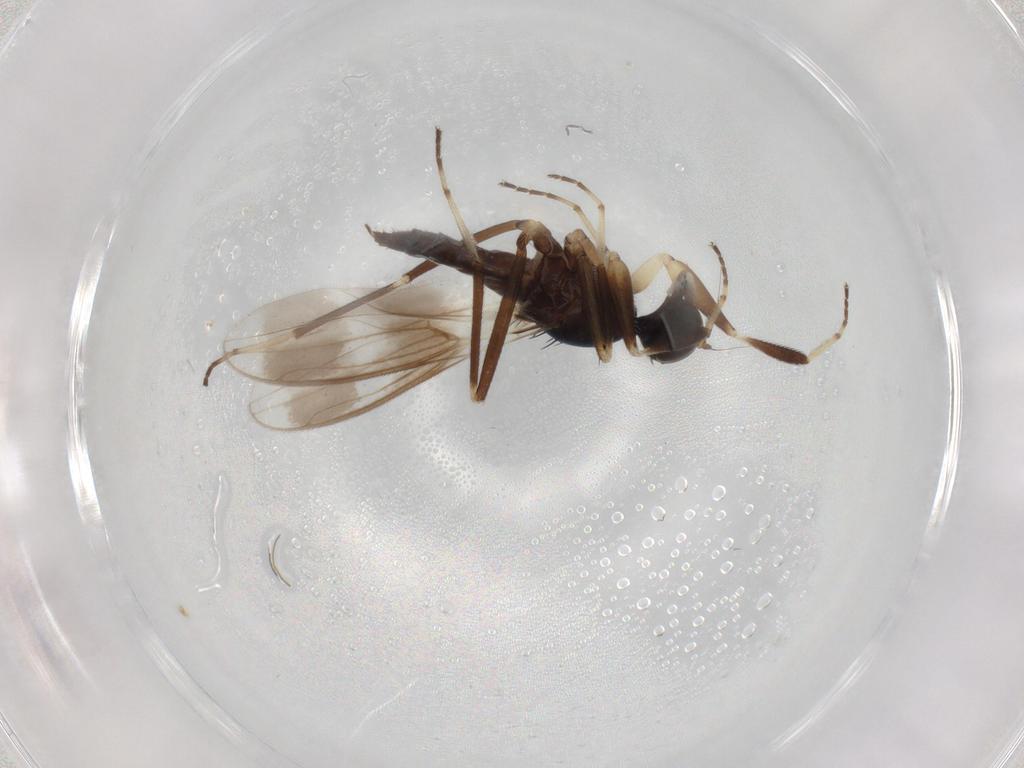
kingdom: Animalia
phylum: Arthropoda
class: Insecta
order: Diptera
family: Hybotidae
